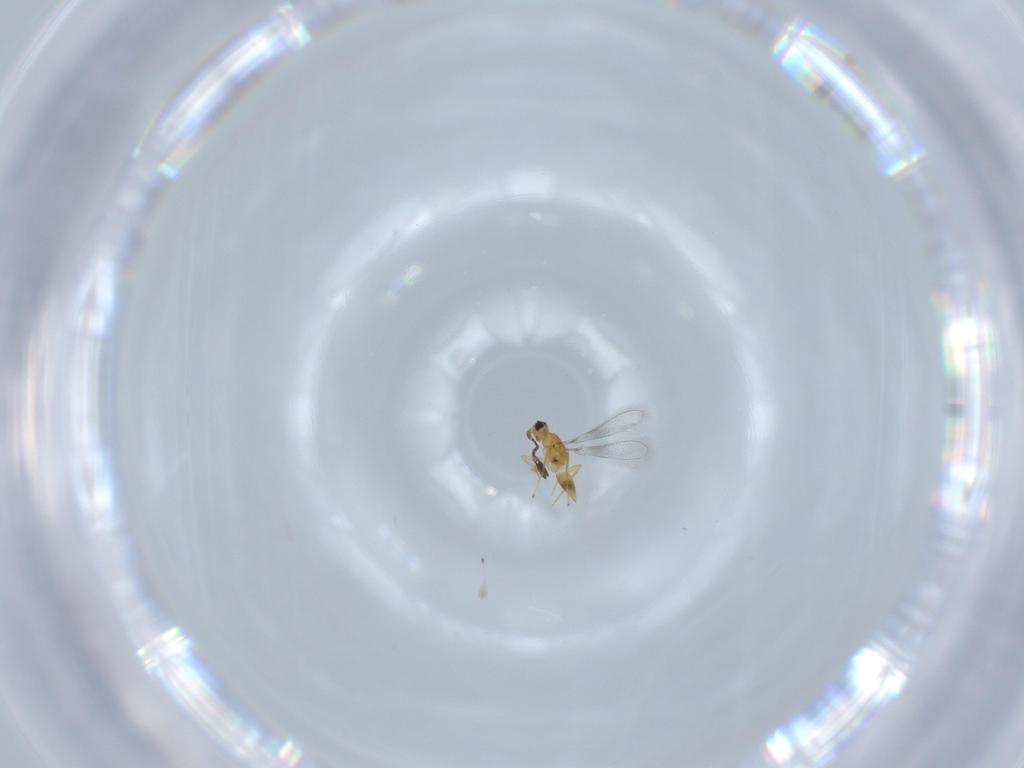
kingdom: Animalia
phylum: Arthropoda
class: Insecta
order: Hymenoptera
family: Mymaridae
